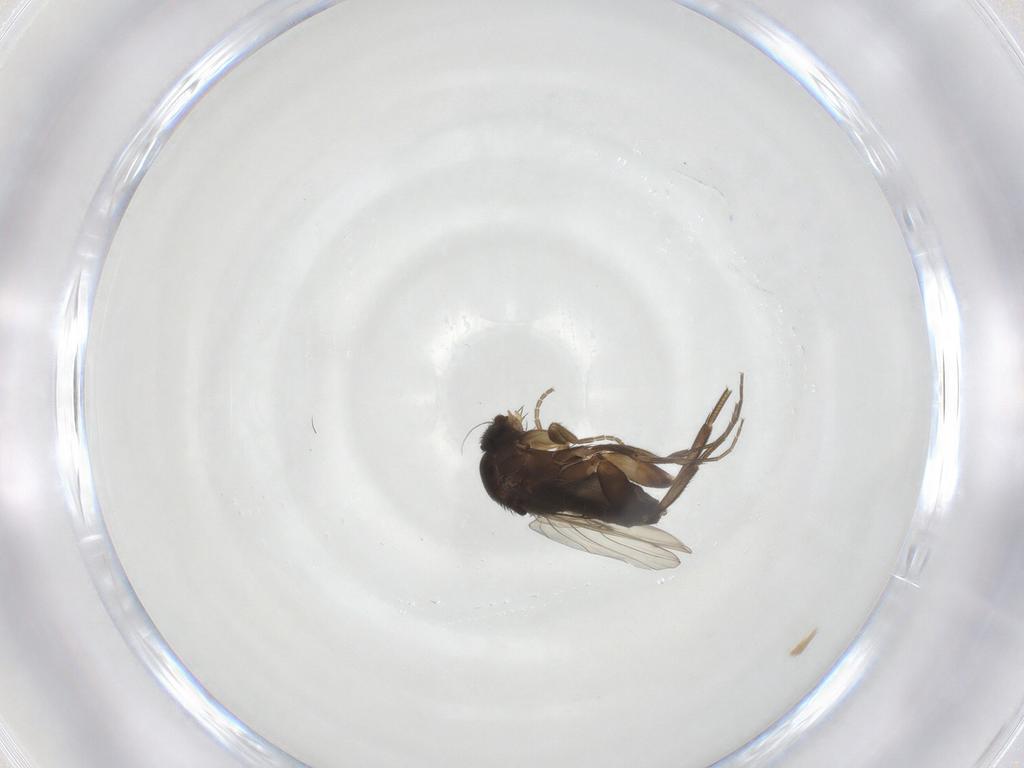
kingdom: Animalia
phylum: Arthropoda
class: Insecta
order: Diptera
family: Phoridae
